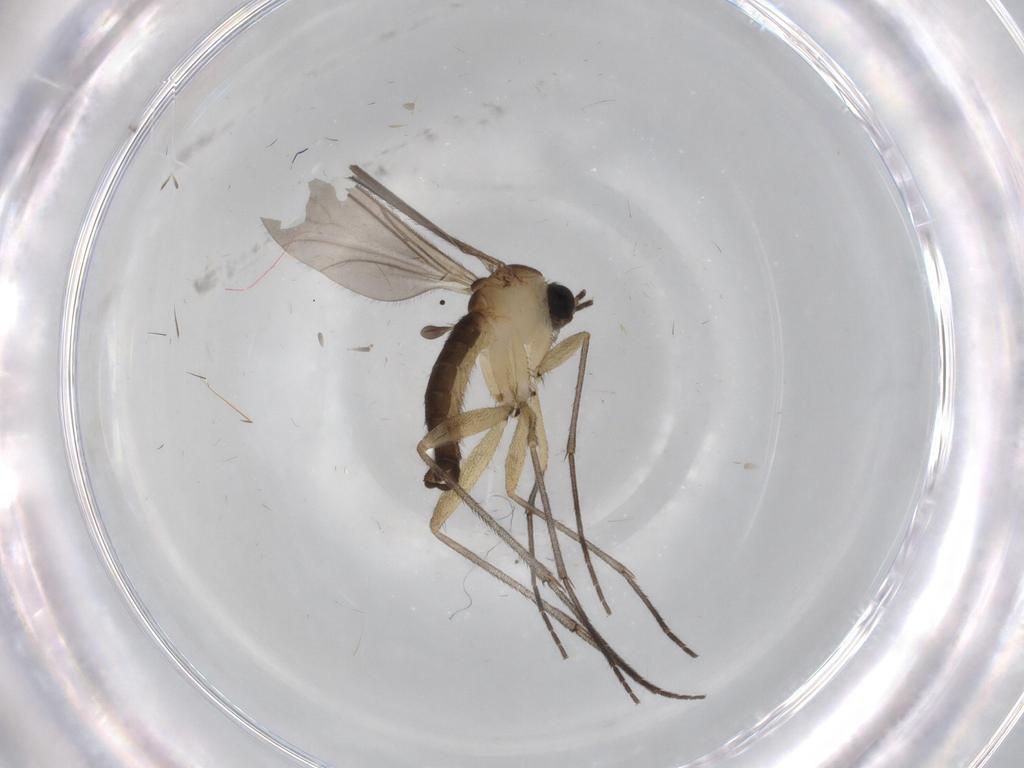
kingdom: Animalia
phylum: Arthropoda
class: Insecta
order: Diptera
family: Sciaridae
